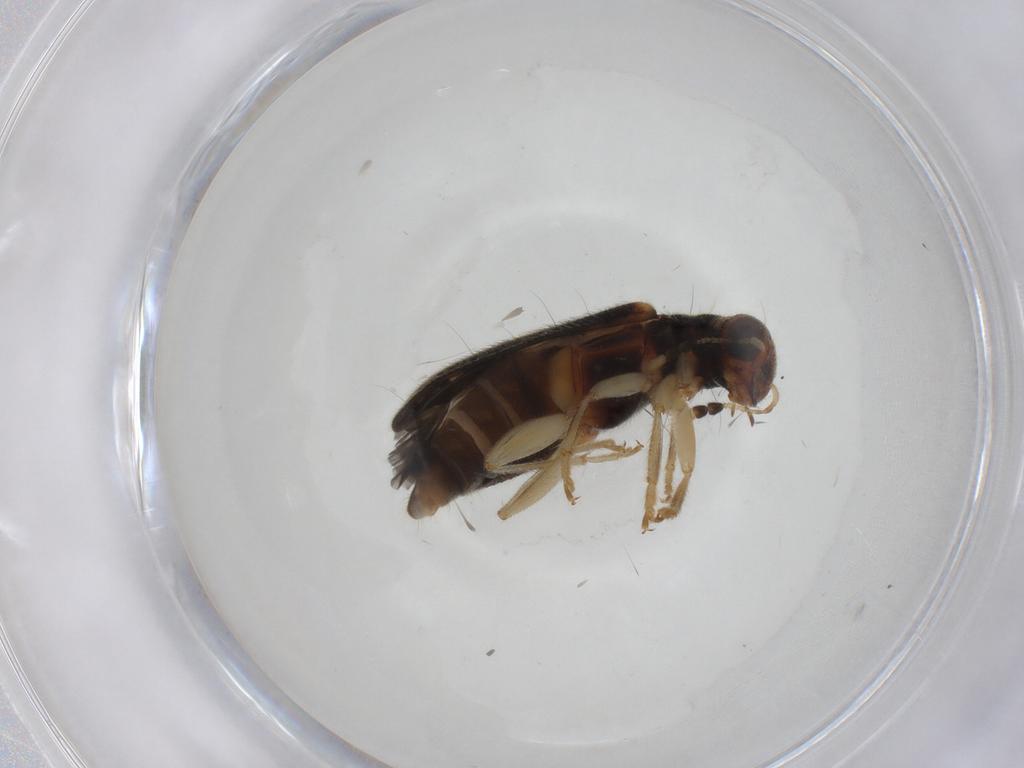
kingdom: Animalia
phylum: Arthropoda
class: Insecta
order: Coleoptera
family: Cleridae
